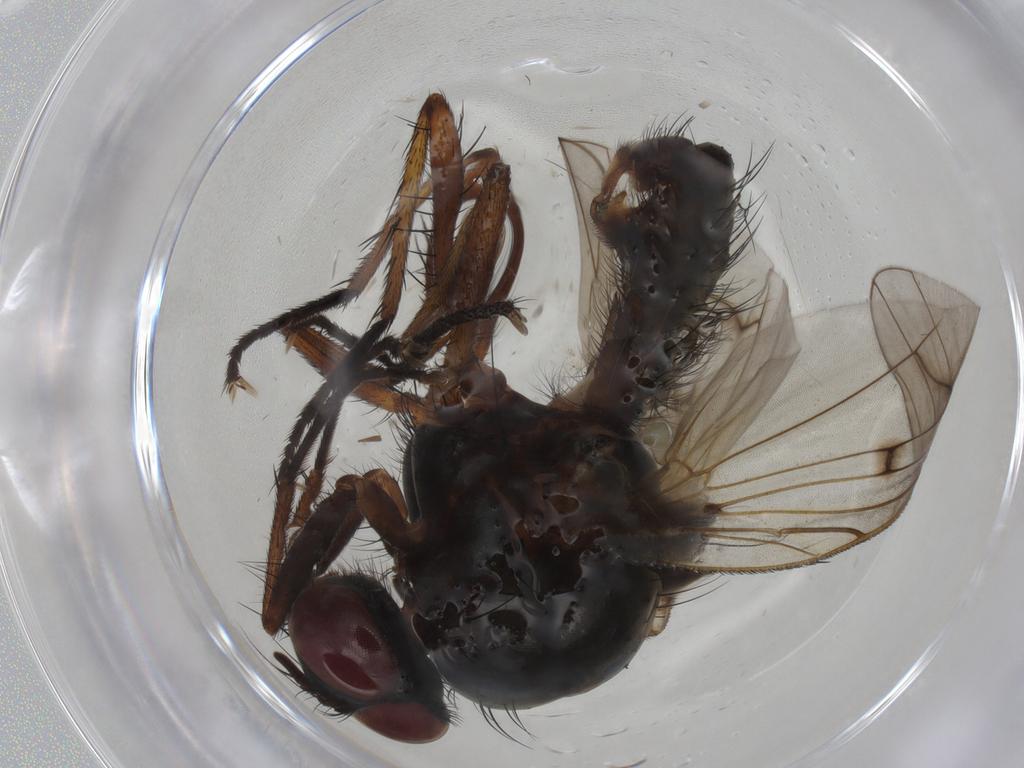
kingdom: Animalia
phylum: Arthropoda
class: Insecta
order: Diptera
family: Anthomyiidae
